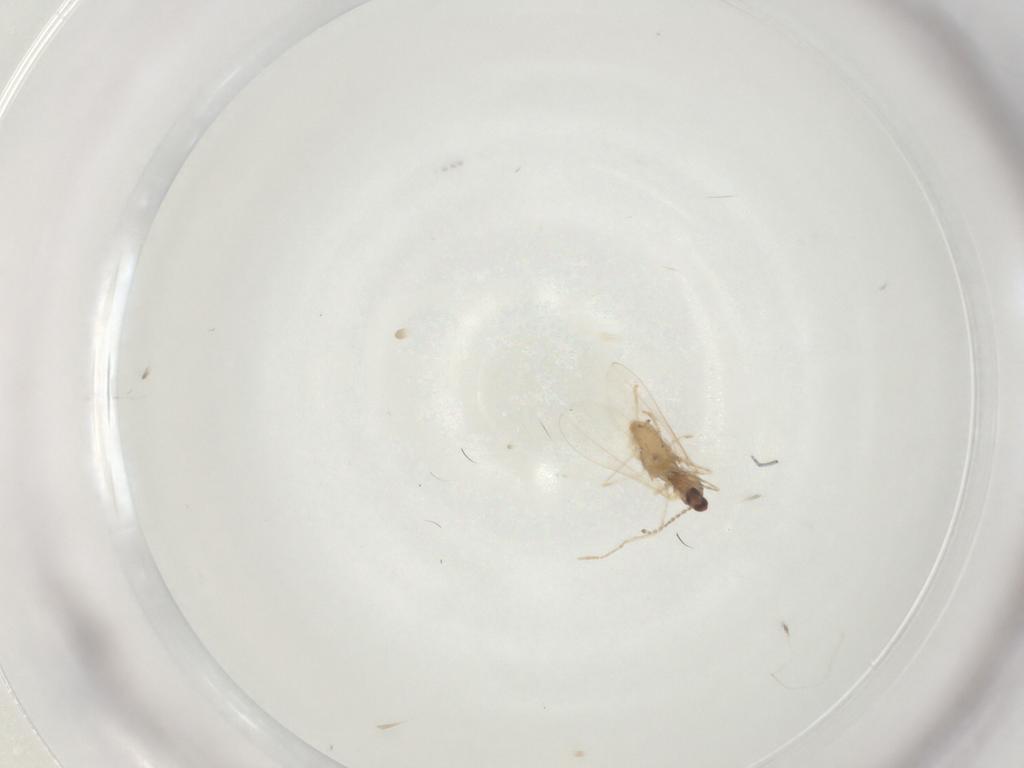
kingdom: Animalia
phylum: Arthropoda
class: Insecta
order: Diptera
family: Cecidomyiidae
